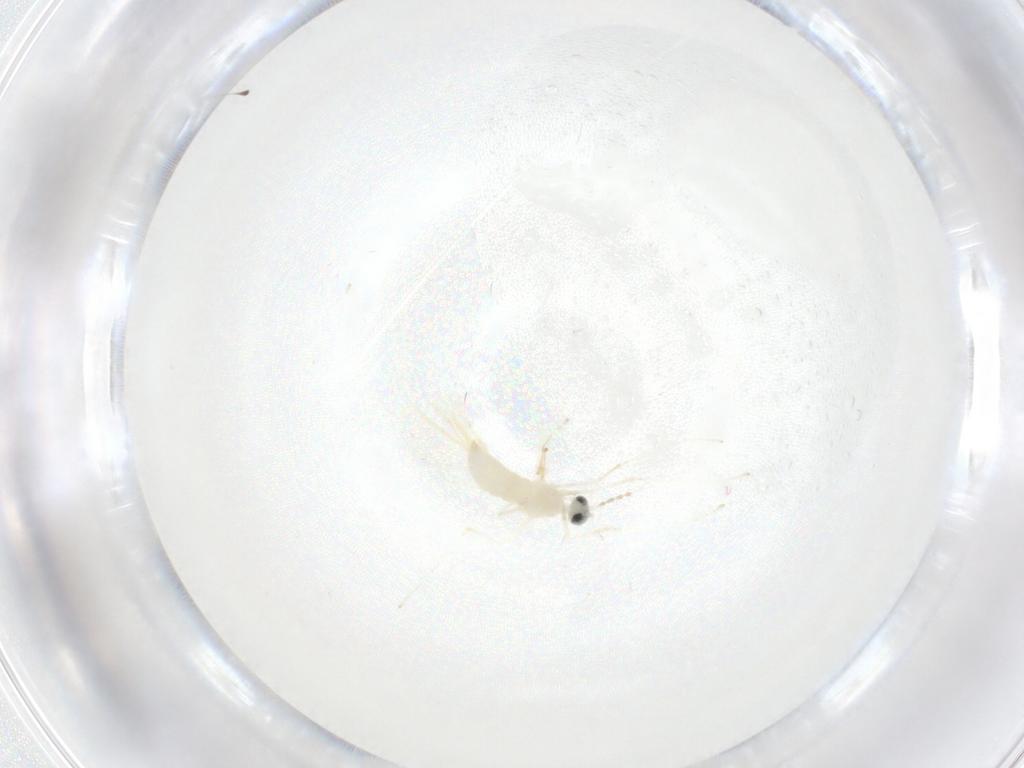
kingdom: Animalia
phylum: Arthropoda
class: Insecta
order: Diptera
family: Cecidomyiidae
